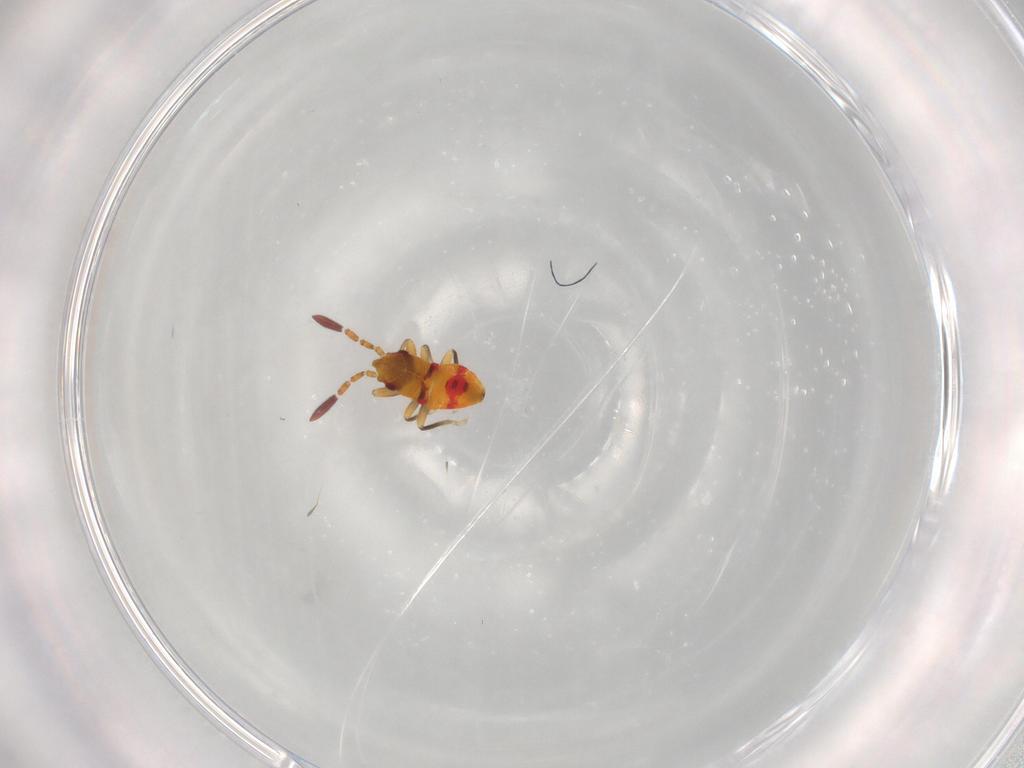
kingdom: Animalia
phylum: Arthropoda
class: Insecta
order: Hemiptera
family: Rhyparochromidae
